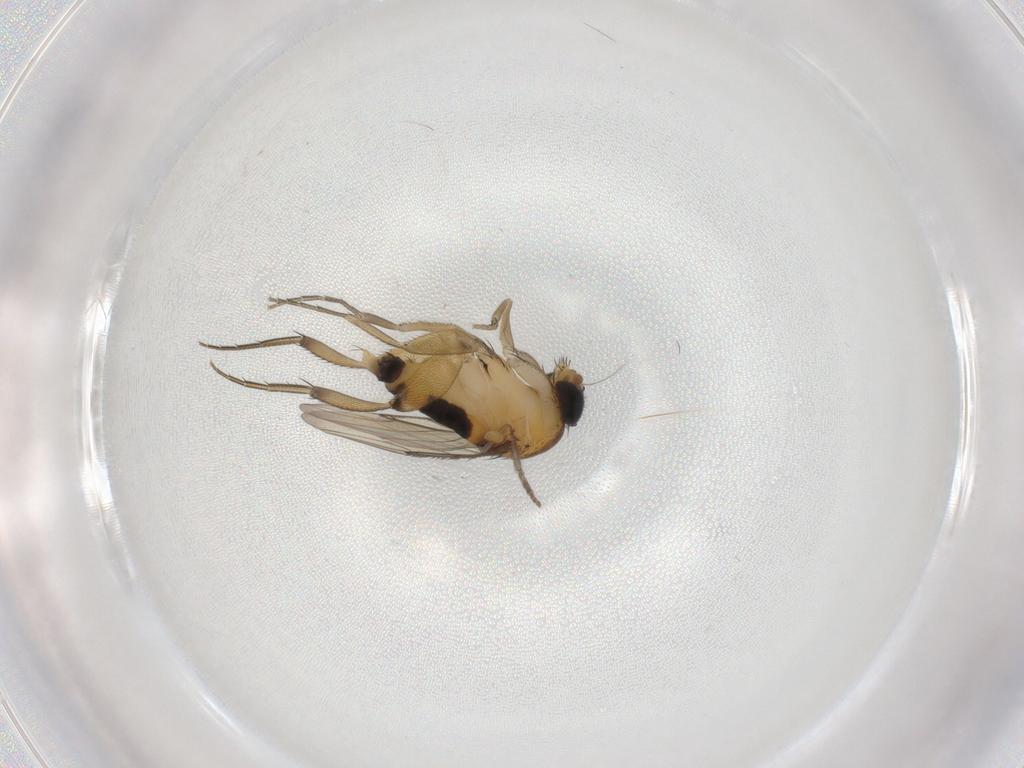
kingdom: Animalia
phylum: Arthropoda
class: Insecta
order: Diptera
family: Phoridae
